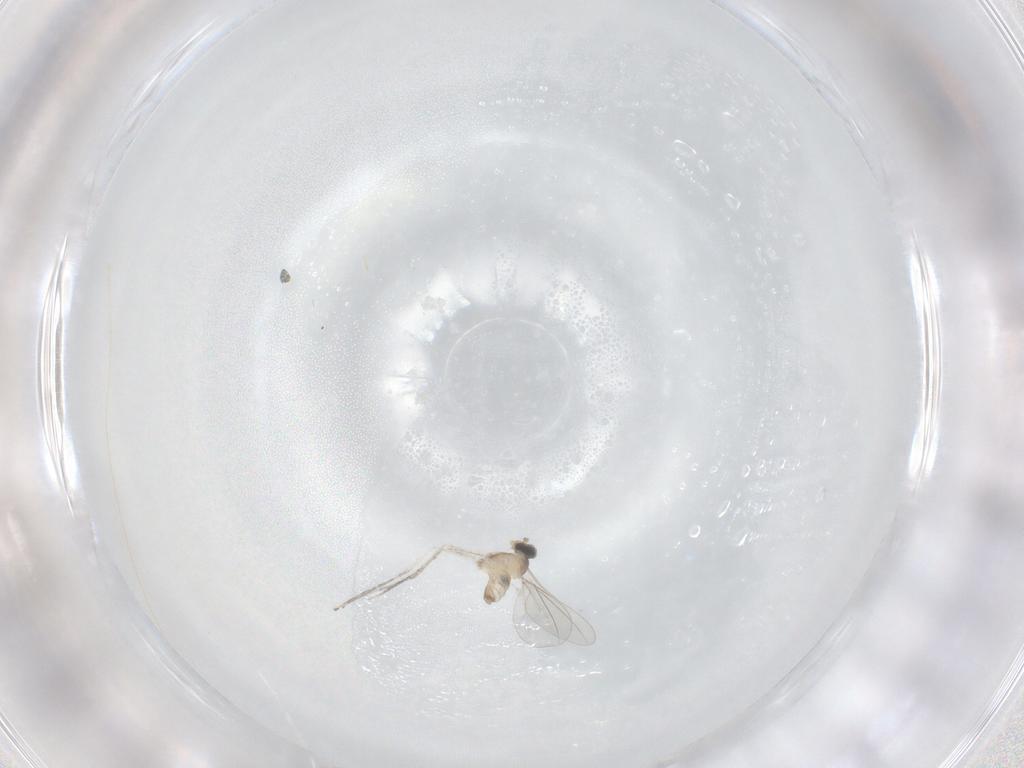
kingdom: Animalia
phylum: Arthropoda
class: Insecta
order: Diptera
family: Cecidomyiidae
